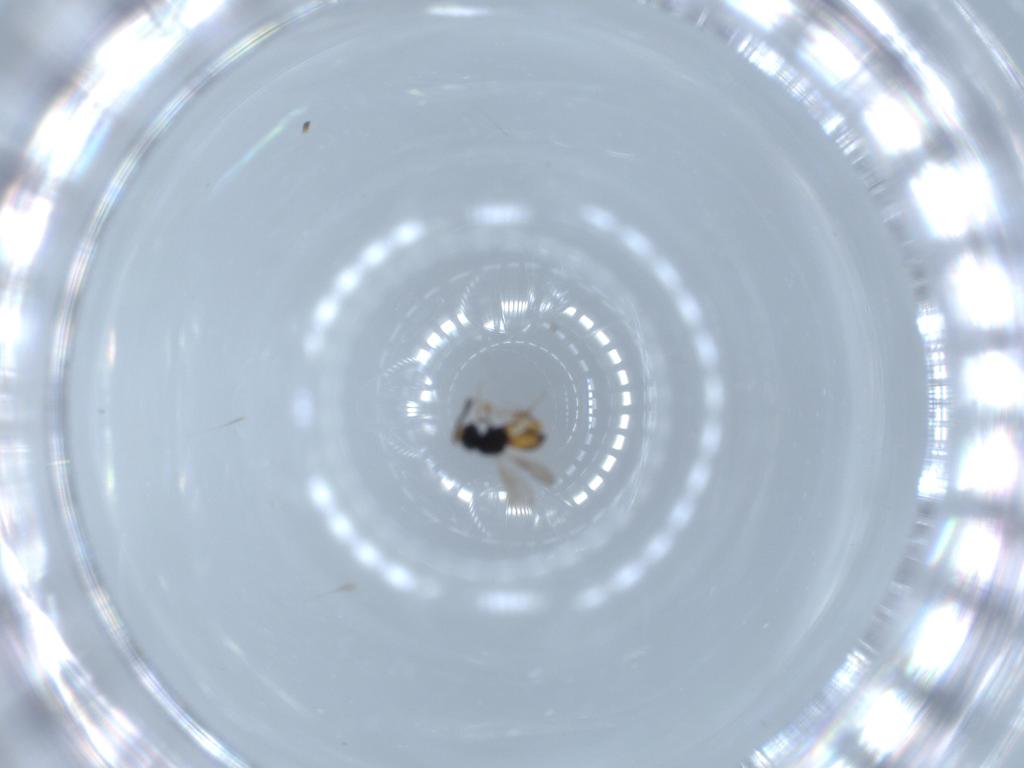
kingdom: Animalia
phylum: Arthropoda
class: Insecta
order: Hymenoptera
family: Scelionidae
